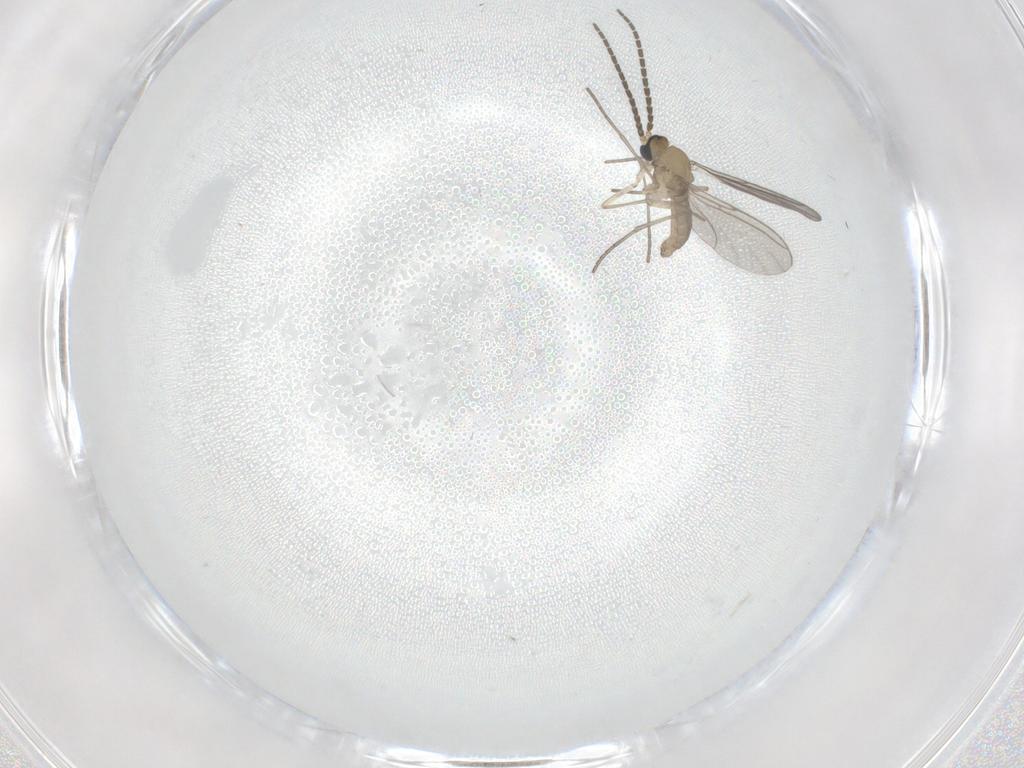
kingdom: Animalia
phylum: Arthropoda
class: Insecta
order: Diptera
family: Sciaridae
